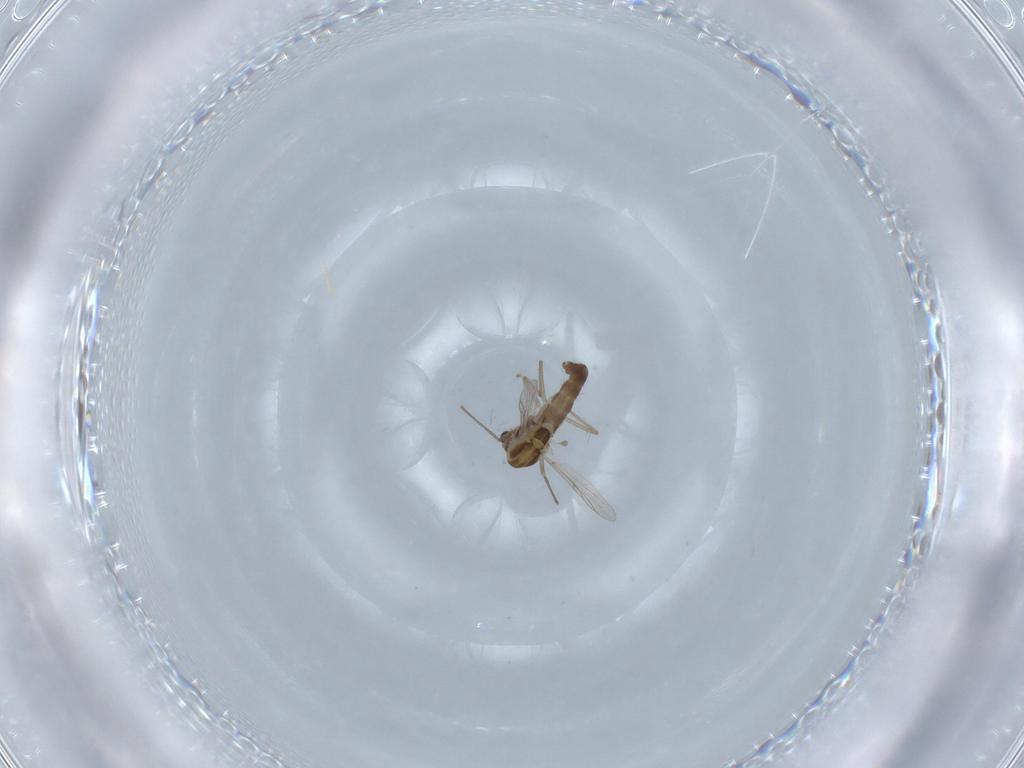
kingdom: Animalia
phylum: Arthropoda
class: Insecta
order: Diptera
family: Chironomidae
